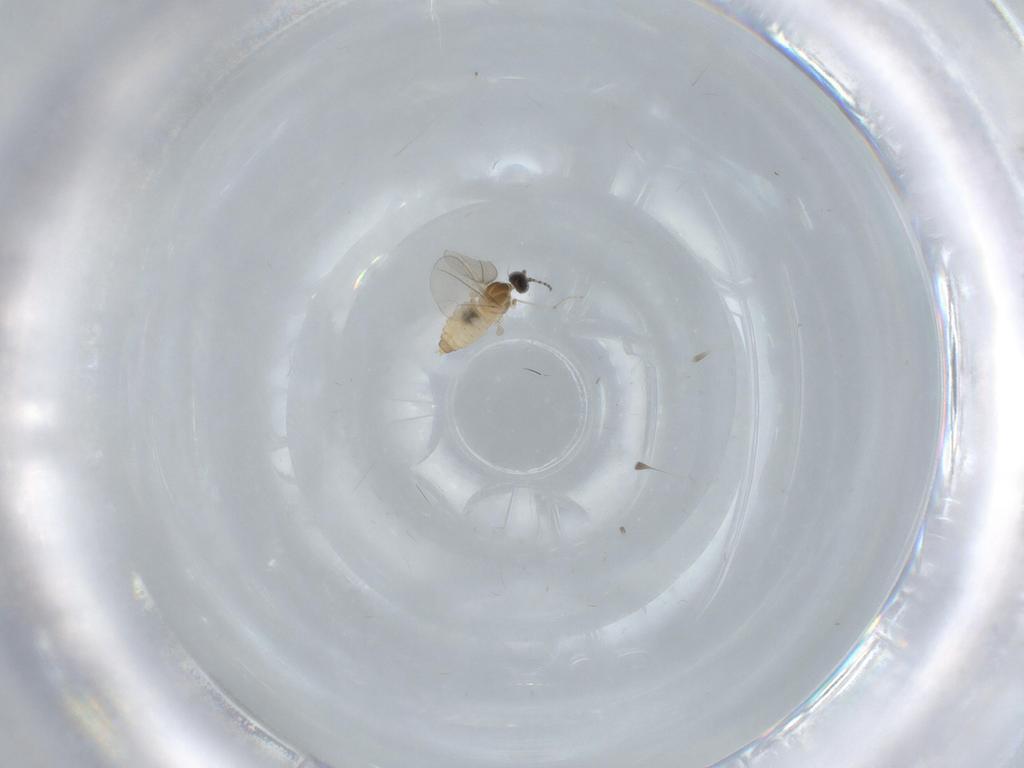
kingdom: Animalia
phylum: Arthropoda
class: Insecta
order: Diptera
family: Cecidomyiidae
